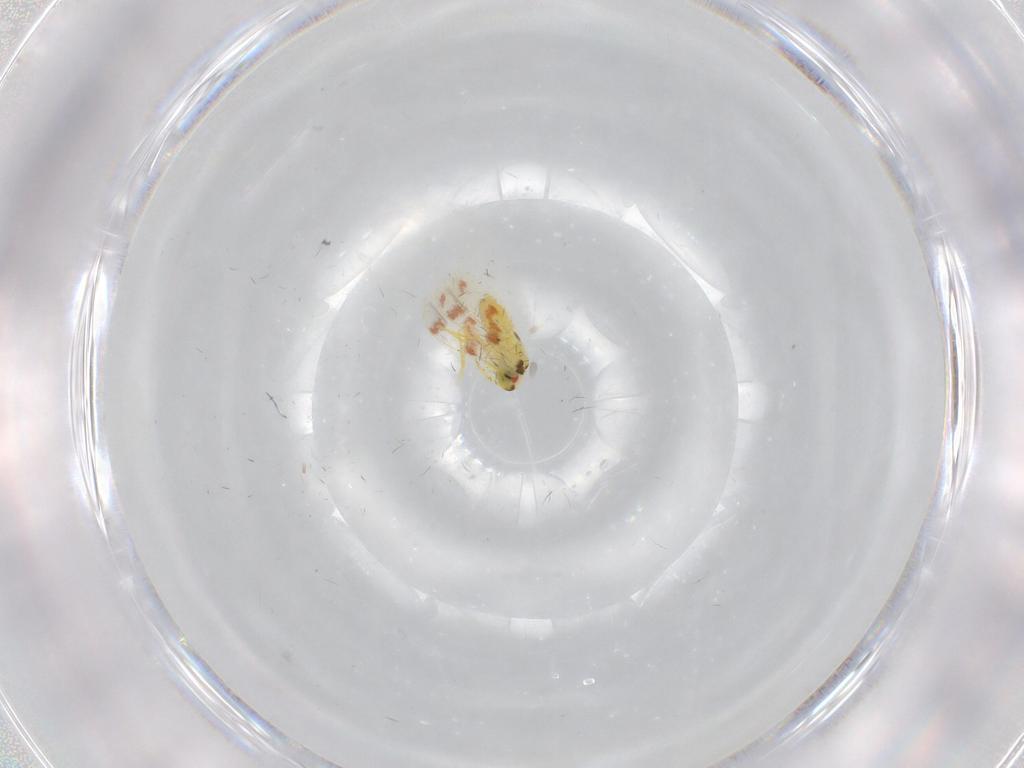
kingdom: Animalia
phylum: Arthropoda
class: Insecta
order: Hemiptera
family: Aleyrodidae
